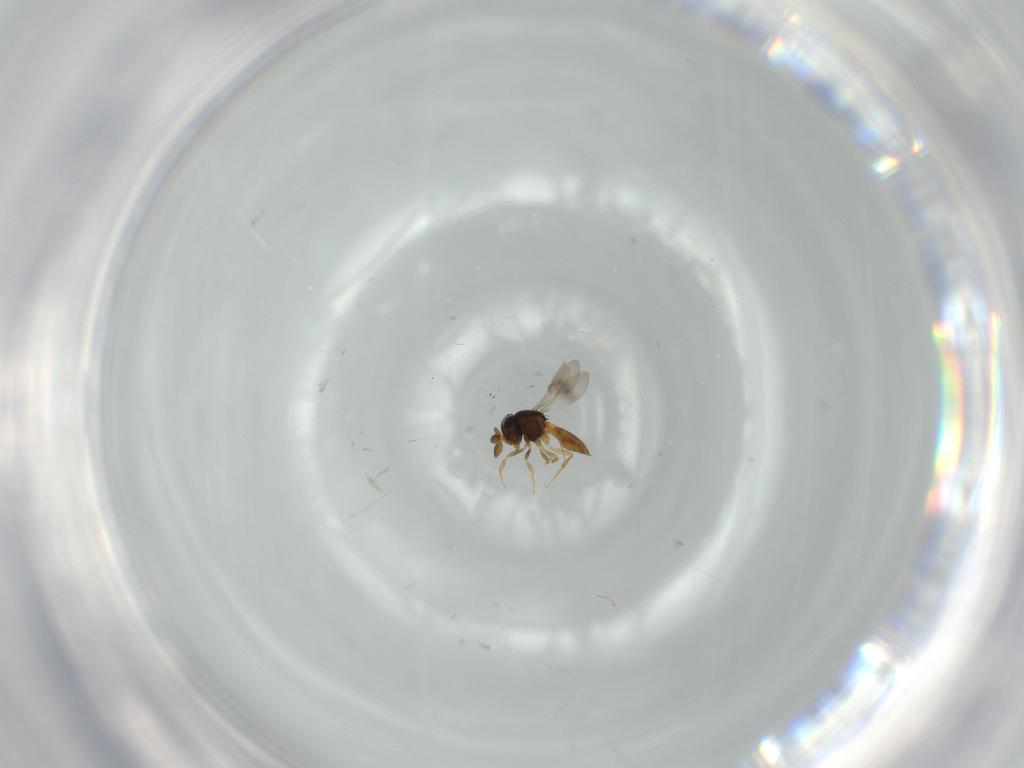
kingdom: Animalia
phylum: Arthropoda
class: Insecta
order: Hymenoptera
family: Scelionidae
